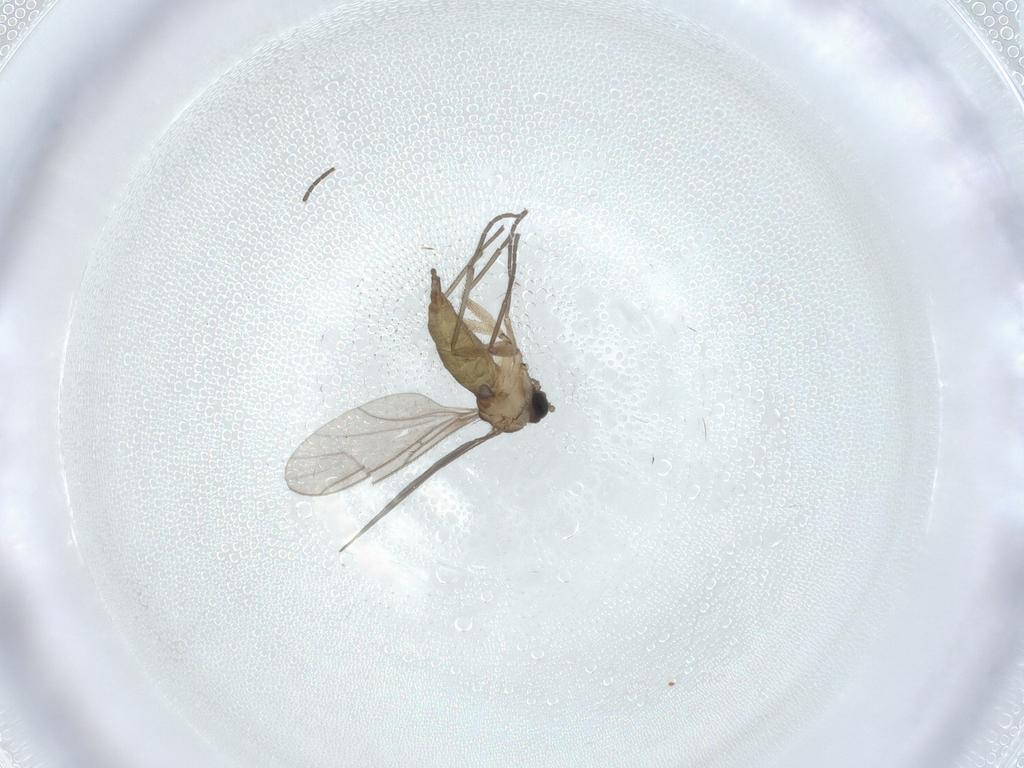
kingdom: Animalia
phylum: Arthropoda
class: Insecta
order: Diptera
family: Sciaridae
